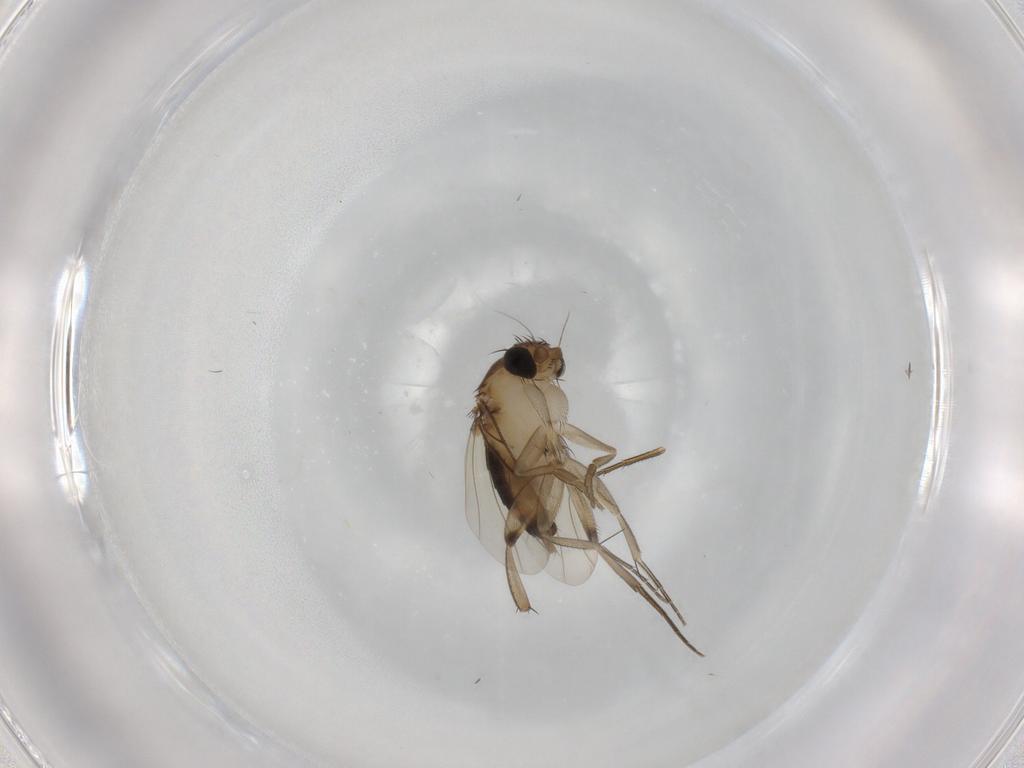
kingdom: Animalia
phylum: Arthropoda
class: Insecta
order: Diptera
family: Phoridae
